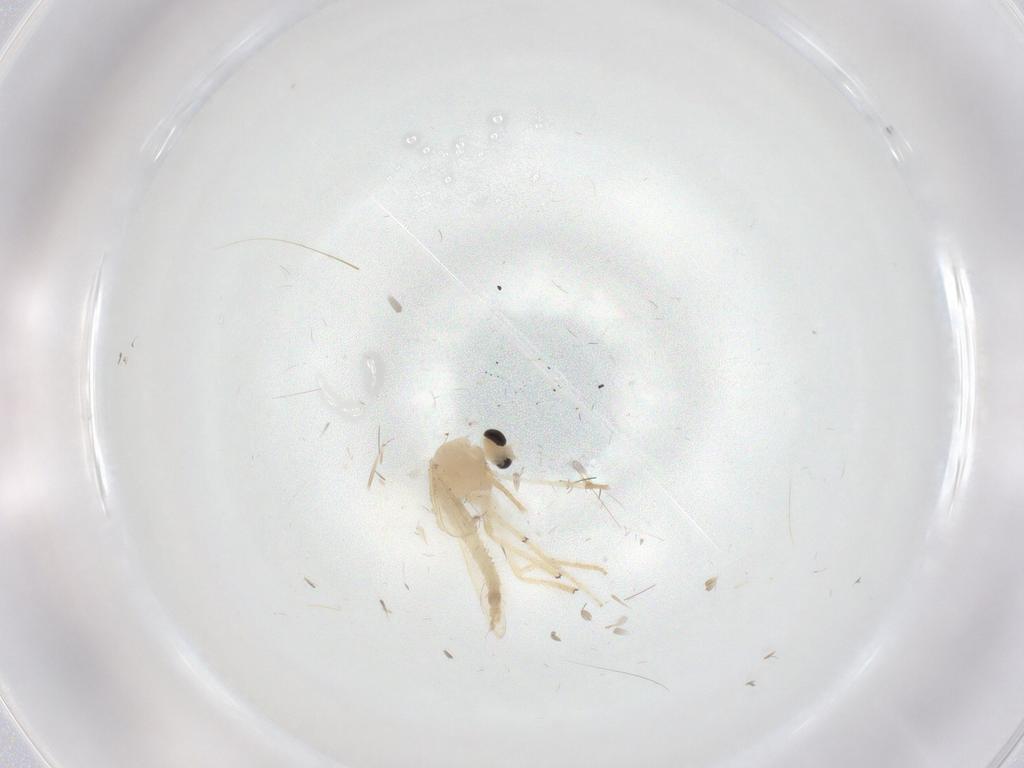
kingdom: Animalia
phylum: Arthropoda
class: Insecta
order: Diptera
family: Chironomidae
